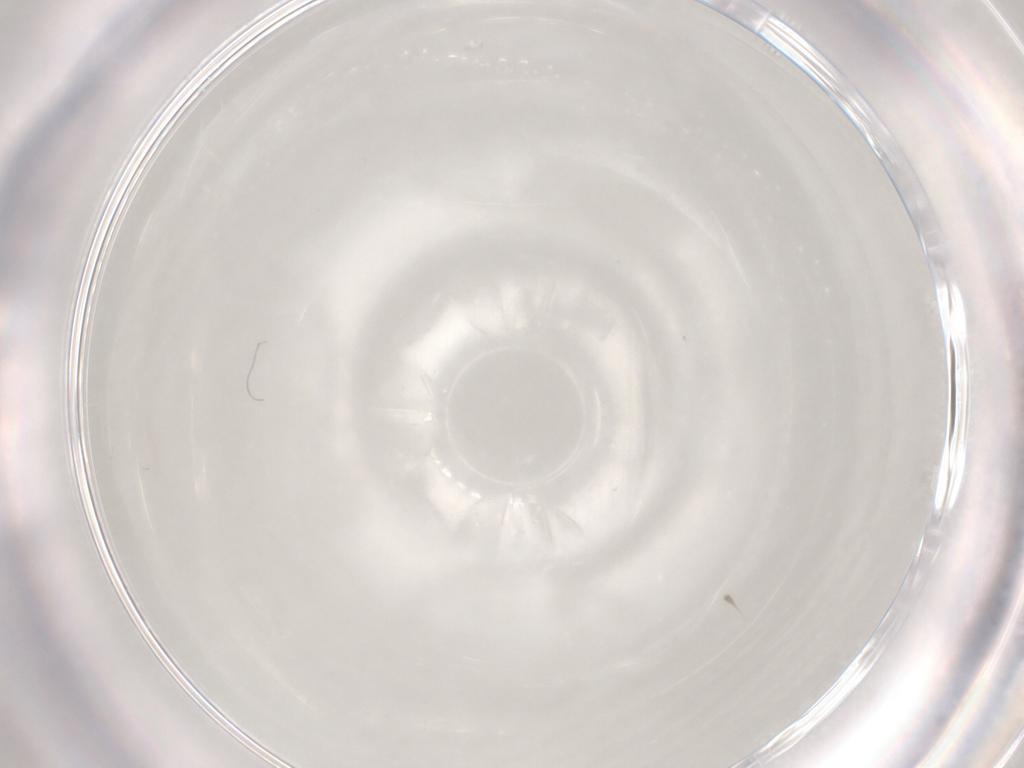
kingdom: Animalia
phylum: Arthropoda
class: Insecta
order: Hemiptera
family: Aleyrodidae
